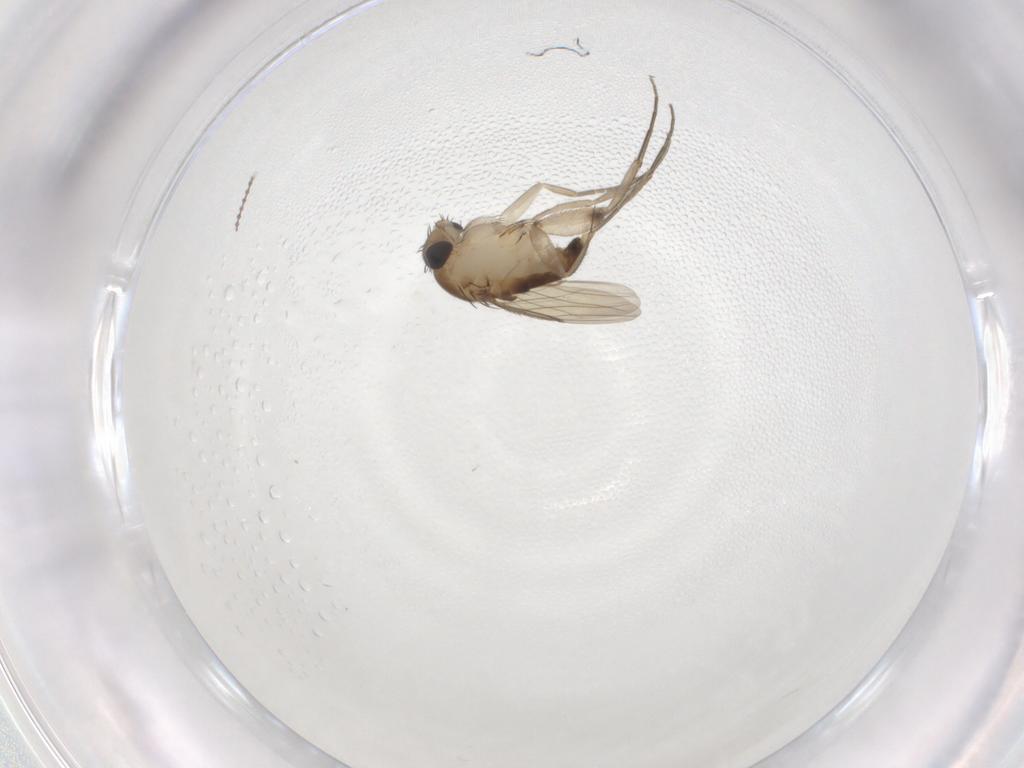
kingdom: Animalia
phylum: Arthropoda
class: Insecta
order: Diptera
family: Cecidomyiidae
